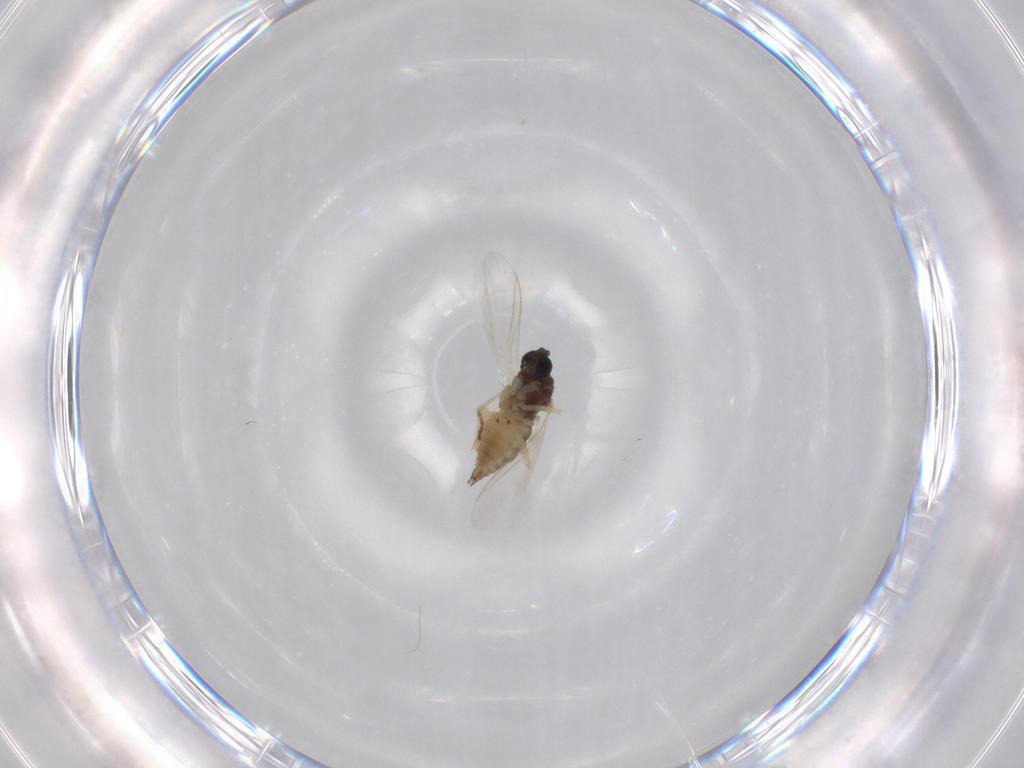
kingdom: Animalia
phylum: Arthropoda
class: Insecta
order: Diptera
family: Sciaridae
